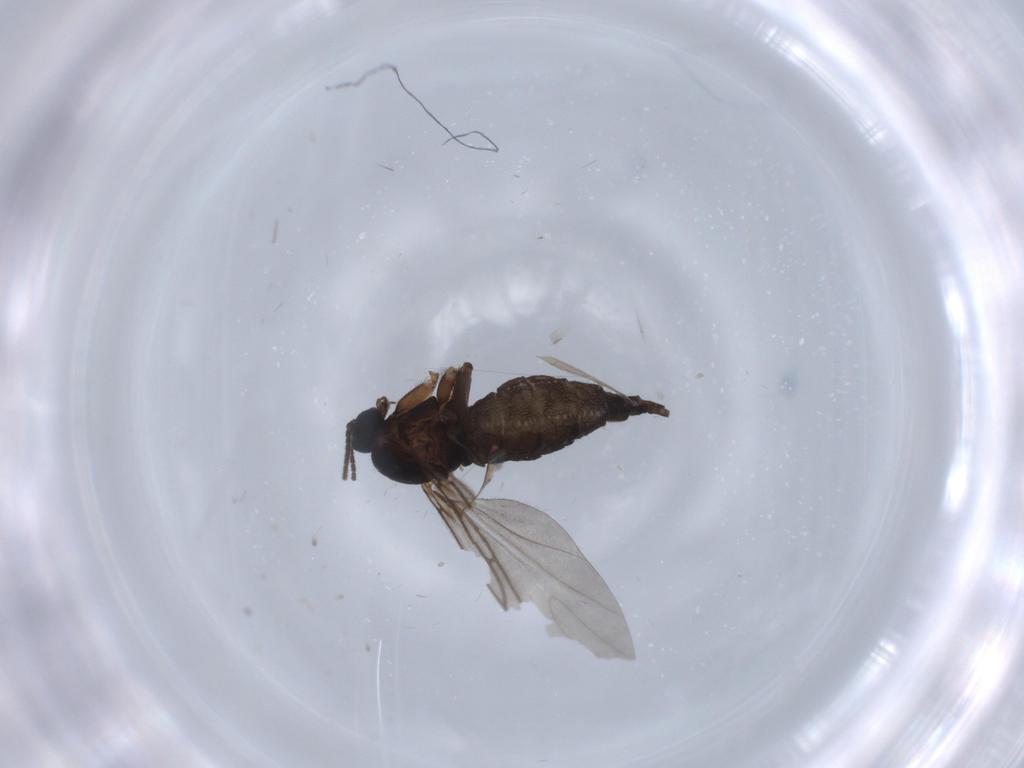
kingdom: Animalia
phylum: Arthropoda
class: Insecta
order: Diptera
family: Sciaridae
